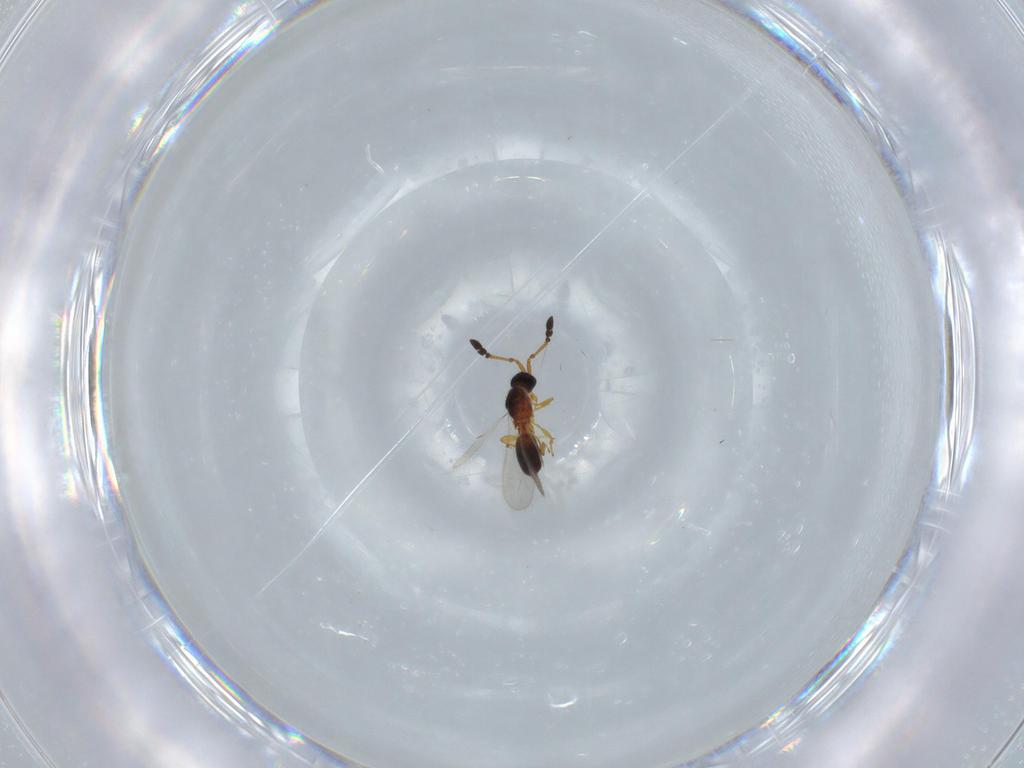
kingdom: Animalia
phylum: Arthropoda
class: Insecta
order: Hymenoptera
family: Diapriidae
